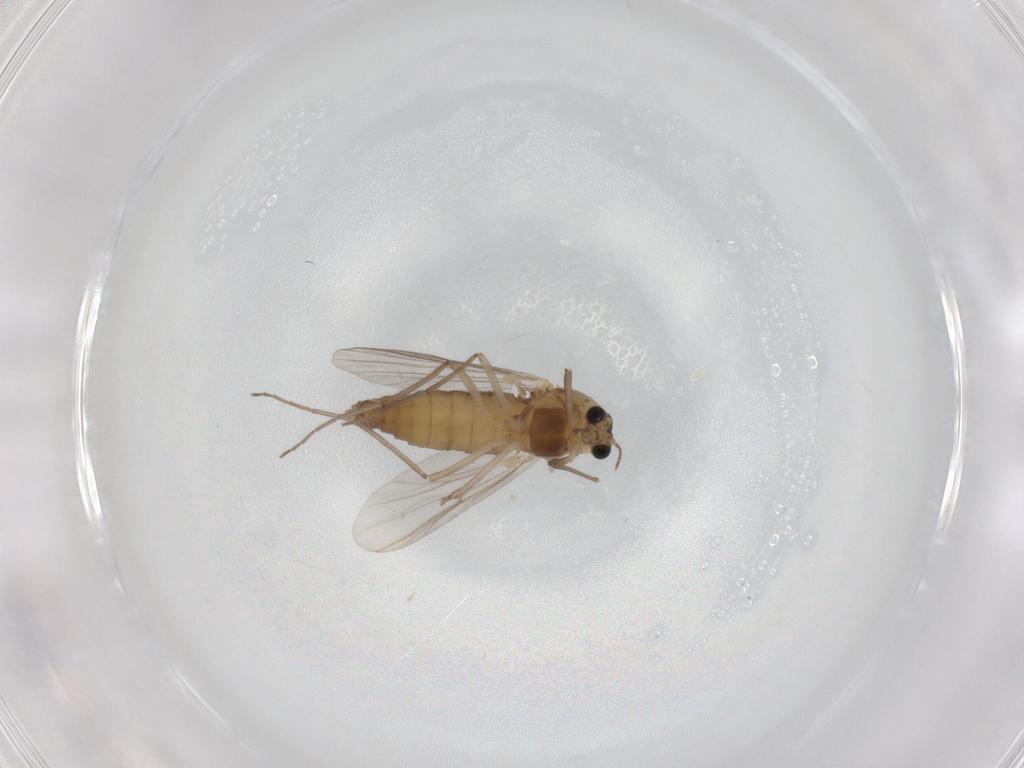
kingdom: Animalia
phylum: Arthropoda
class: Insecta
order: Diptera
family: Chironomidae
